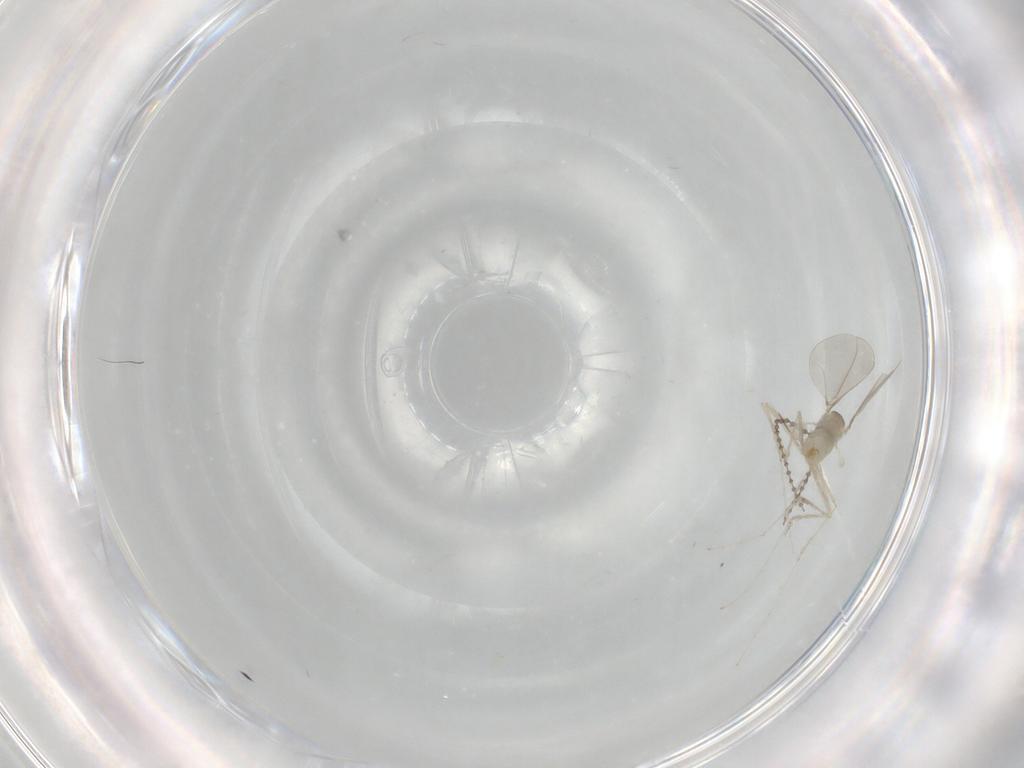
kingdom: Animalia
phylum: Arthropoda
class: Insecta
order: Diptera
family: Cecidomyiidae
